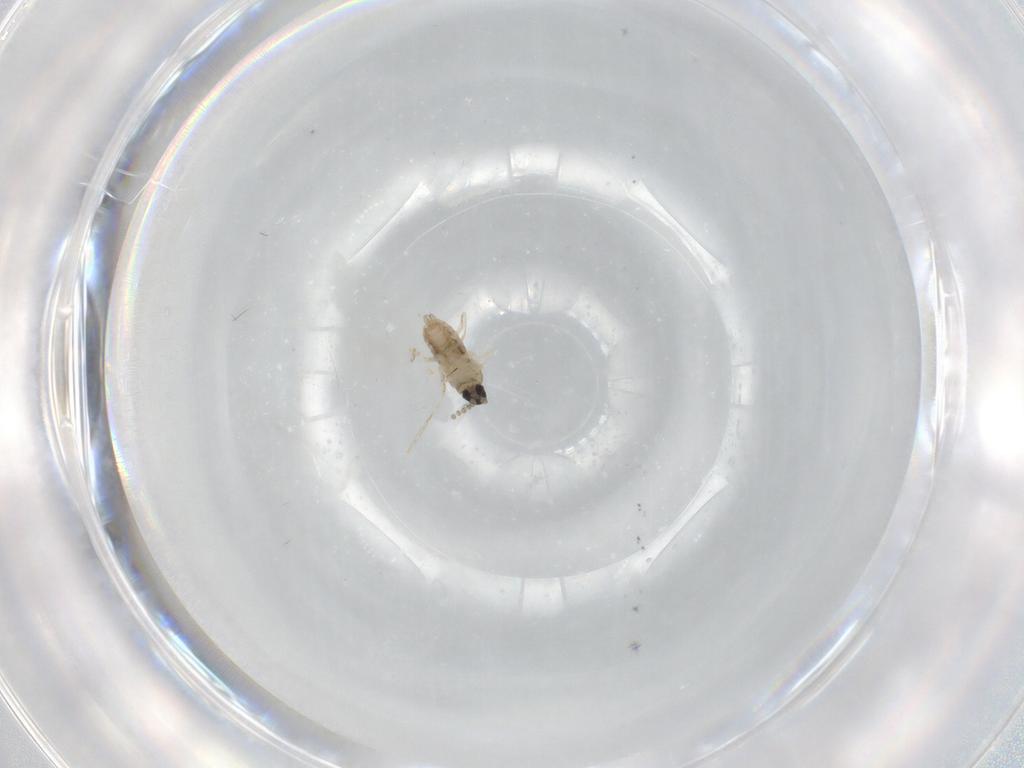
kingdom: Animalia
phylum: Arthropoda
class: Insecta
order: Diptera
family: Cecidomyiidae
